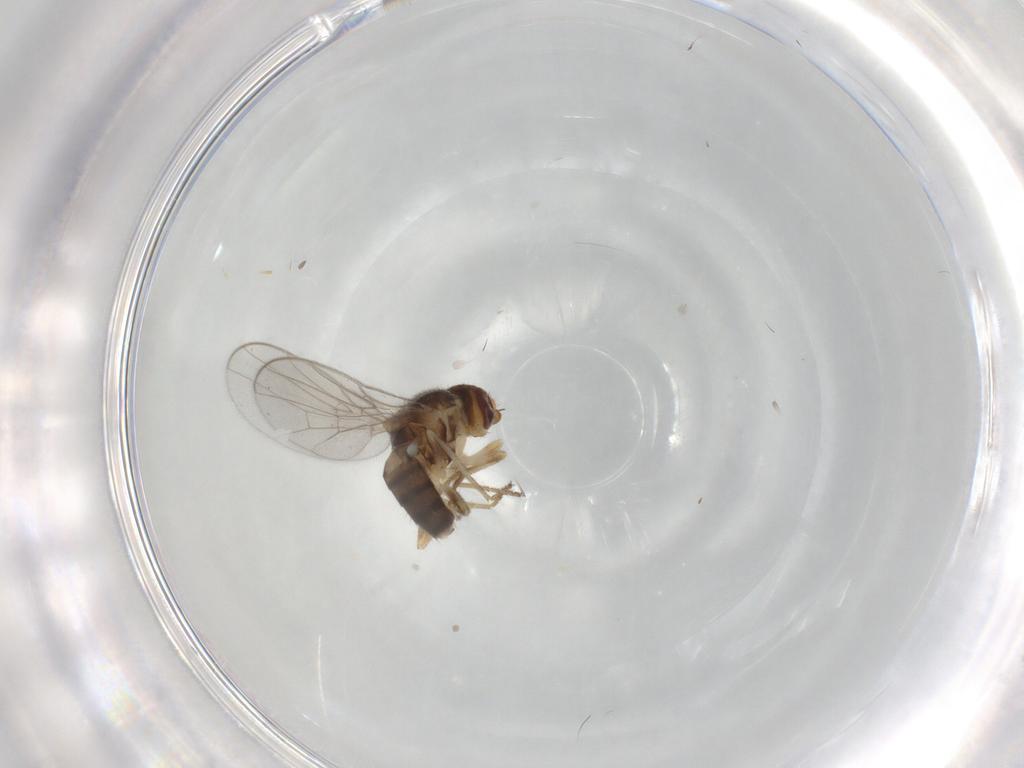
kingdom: Animalia
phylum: Arthropoda
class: Insecta
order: Diptera
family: Chloropidae
